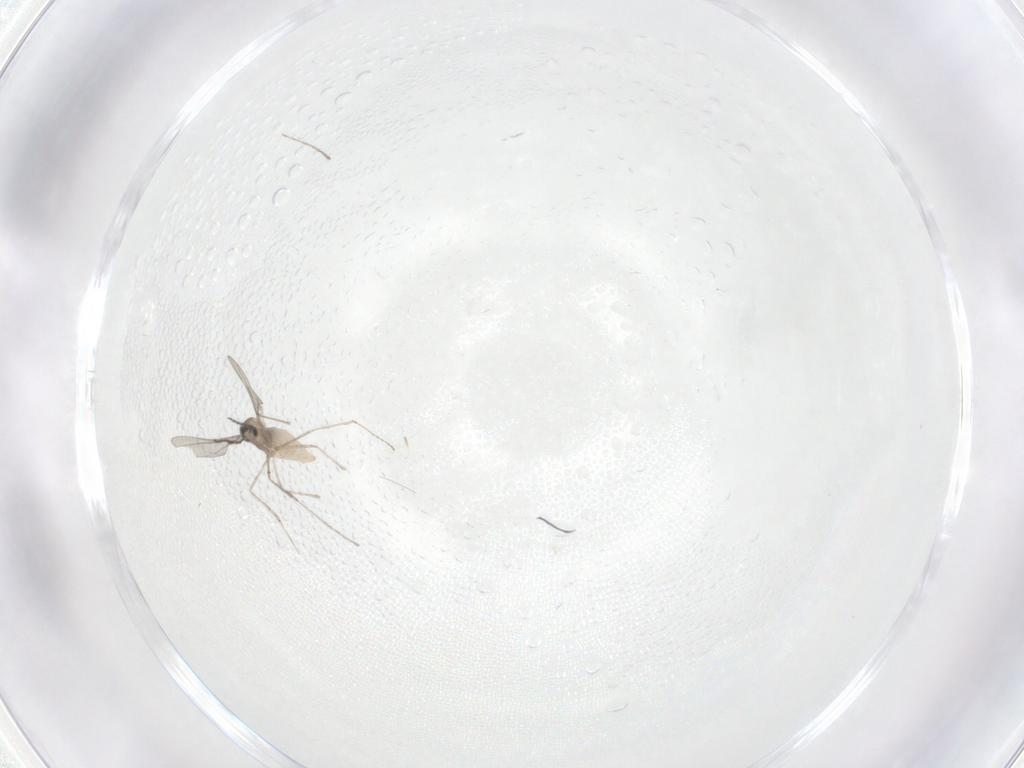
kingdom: Animalia
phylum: Arthropoda
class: Insecta
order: Diptera
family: Cecidomyiidae
